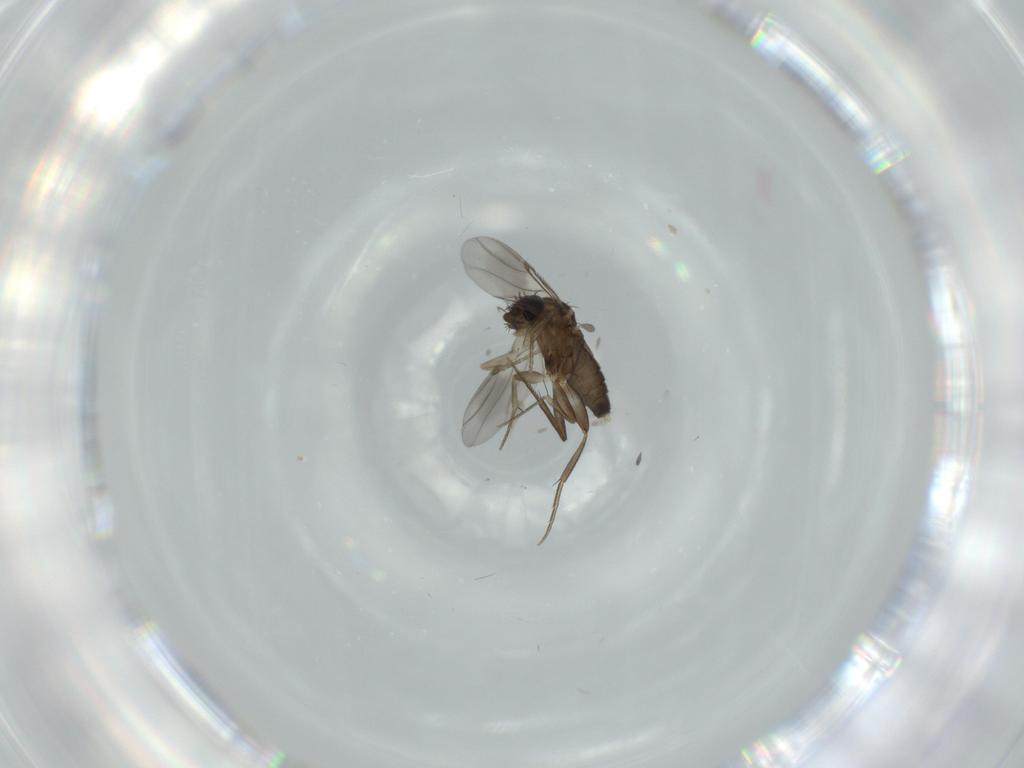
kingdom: Animalia
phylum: Arthropoda
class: Insecta
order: Diptera
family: Phoridae
